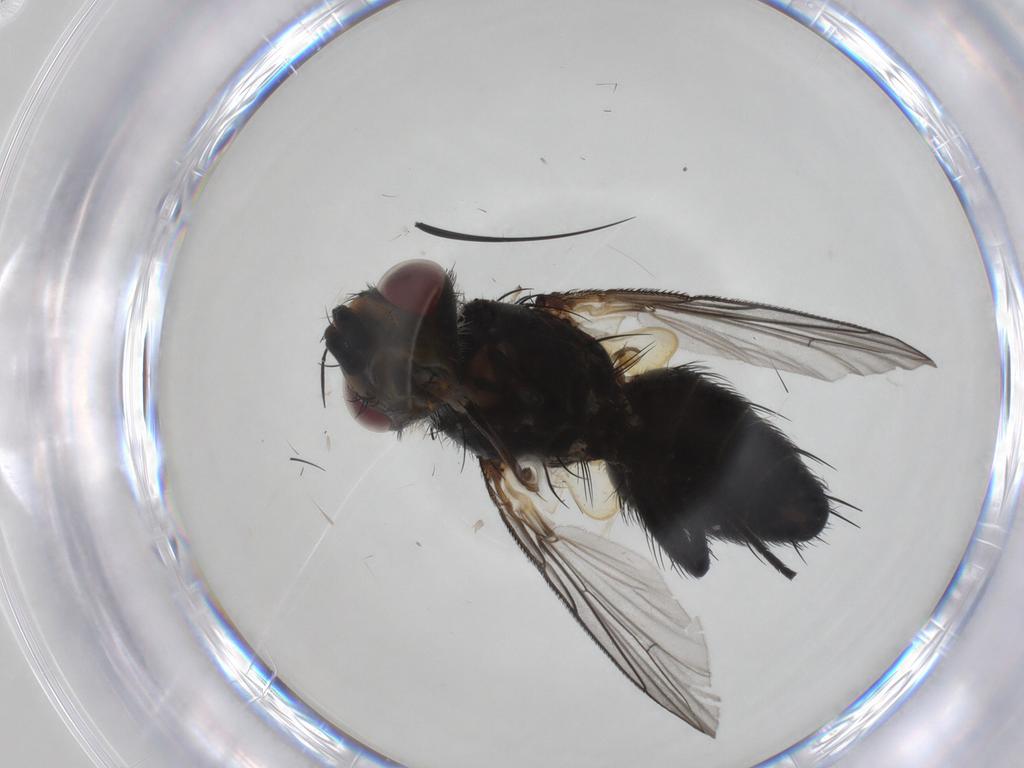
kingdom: Animalia
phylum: Arthropoda
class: Insecta
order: Diptera
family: Tachinidae
